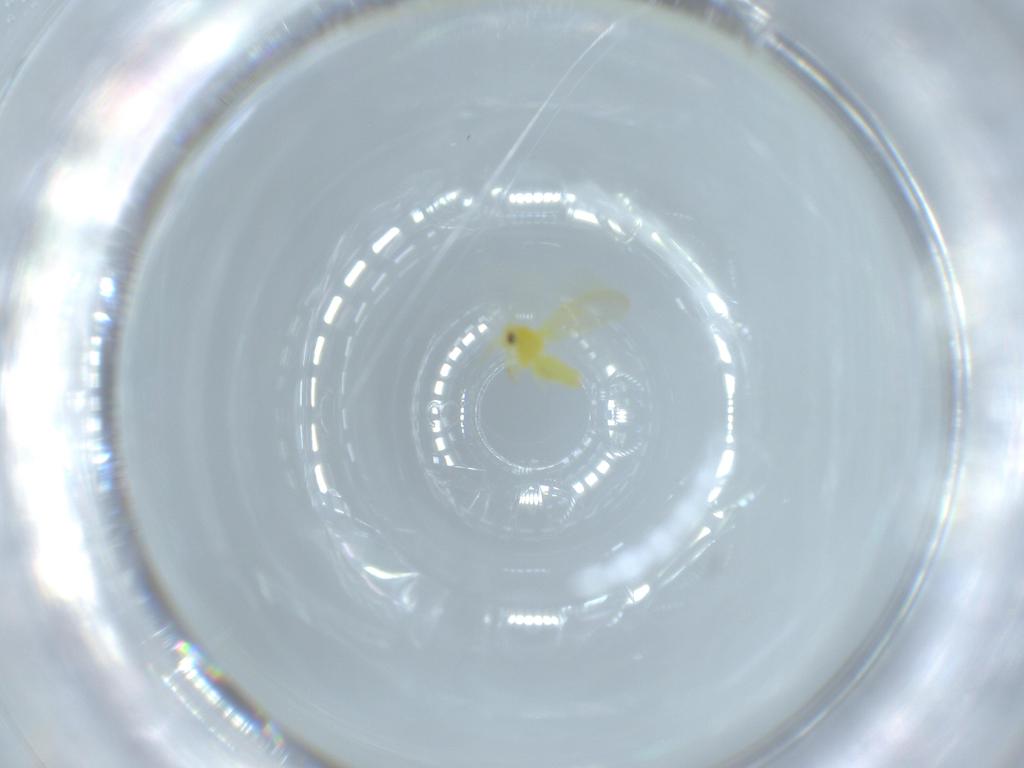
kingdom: Animalia
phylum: Arthropoda
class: Insecta
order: Hemiptera
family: Aleyrodidae
